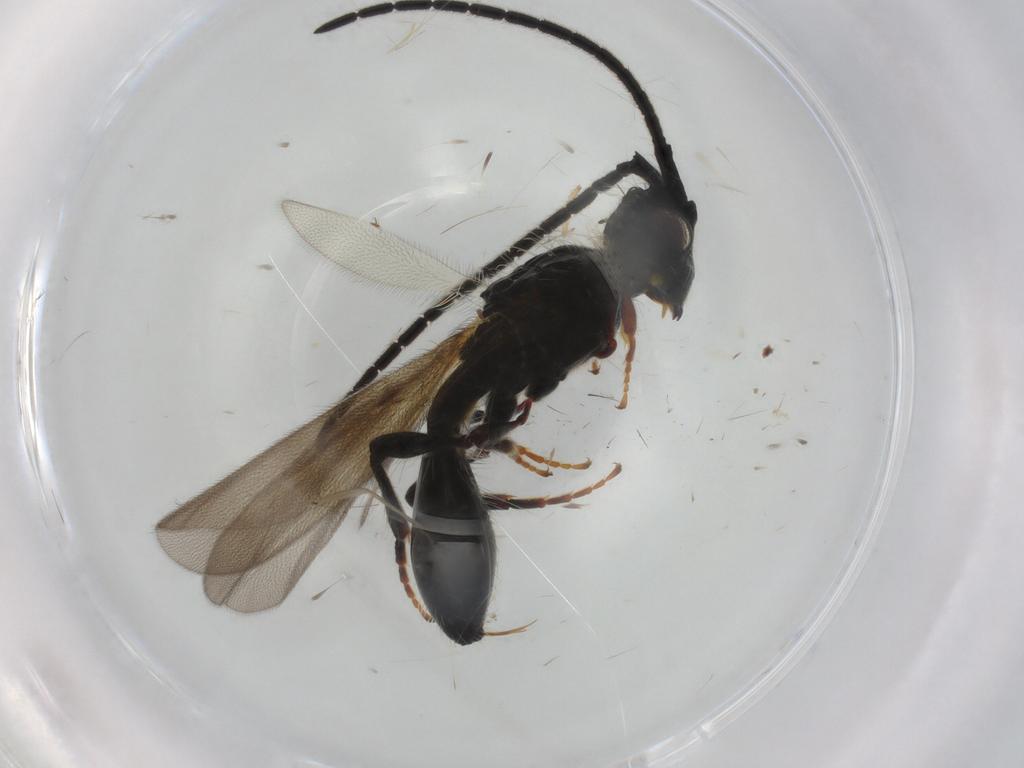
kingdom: Animalia
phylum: Arthropoda
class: Insecta
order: Hymenoptera
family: Diapriidae
